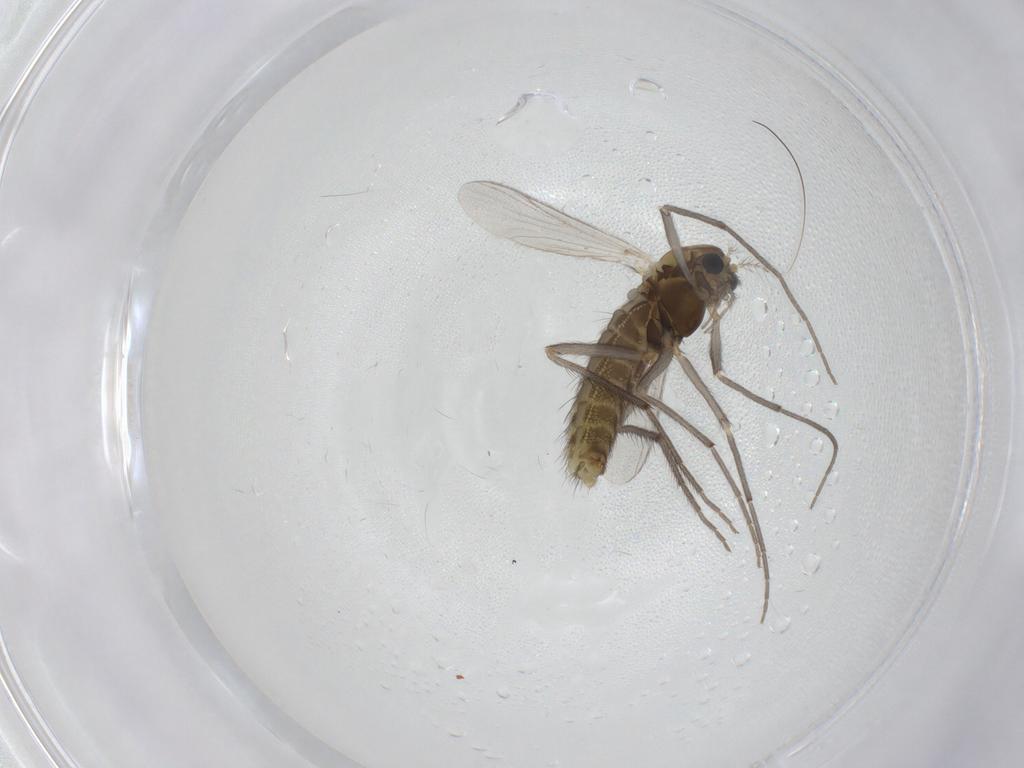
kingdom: Animalia
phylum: Arthropoda
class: Insecta
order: Diptera
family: Chironomidae
